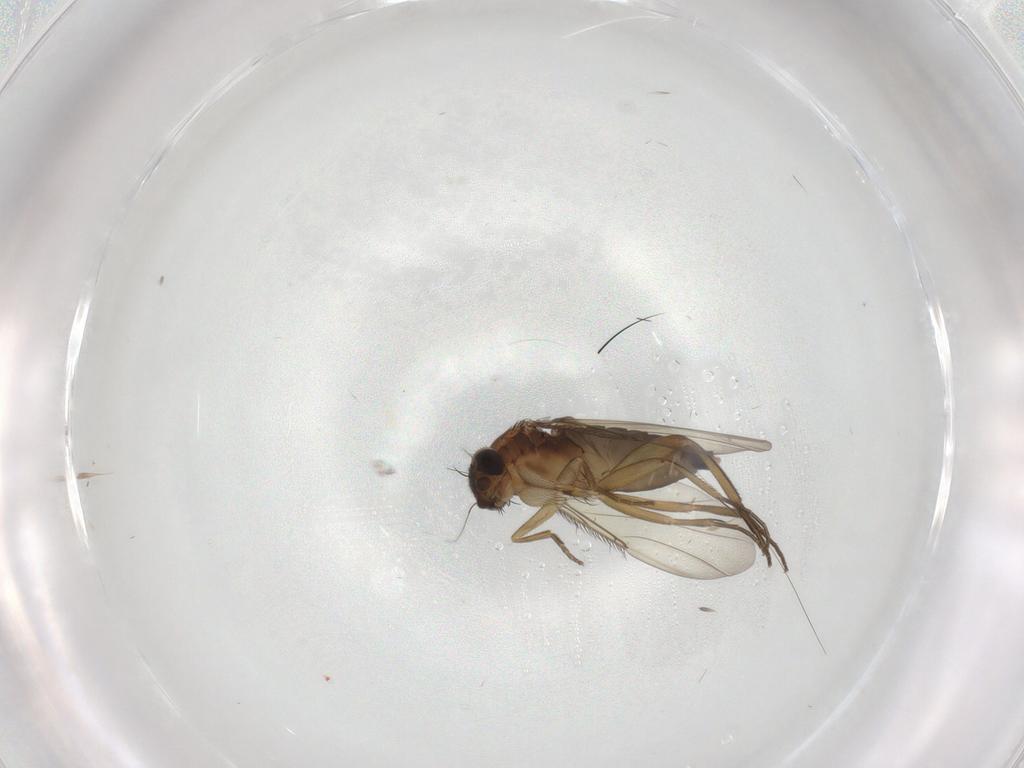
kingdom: Animalia
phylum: Arthropoda
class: Insecta
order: Diptera
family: Phoridae
